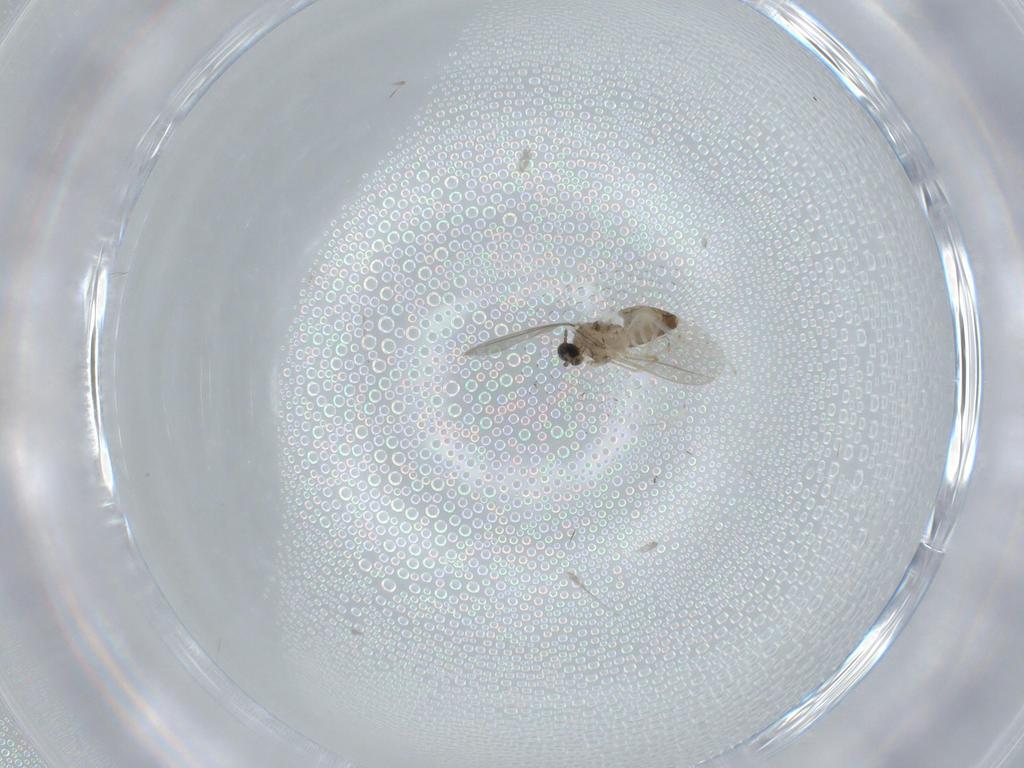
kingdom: Animalia
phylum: Arthropoda
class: Insecta
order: Diptera
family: Cecidomyiidae
